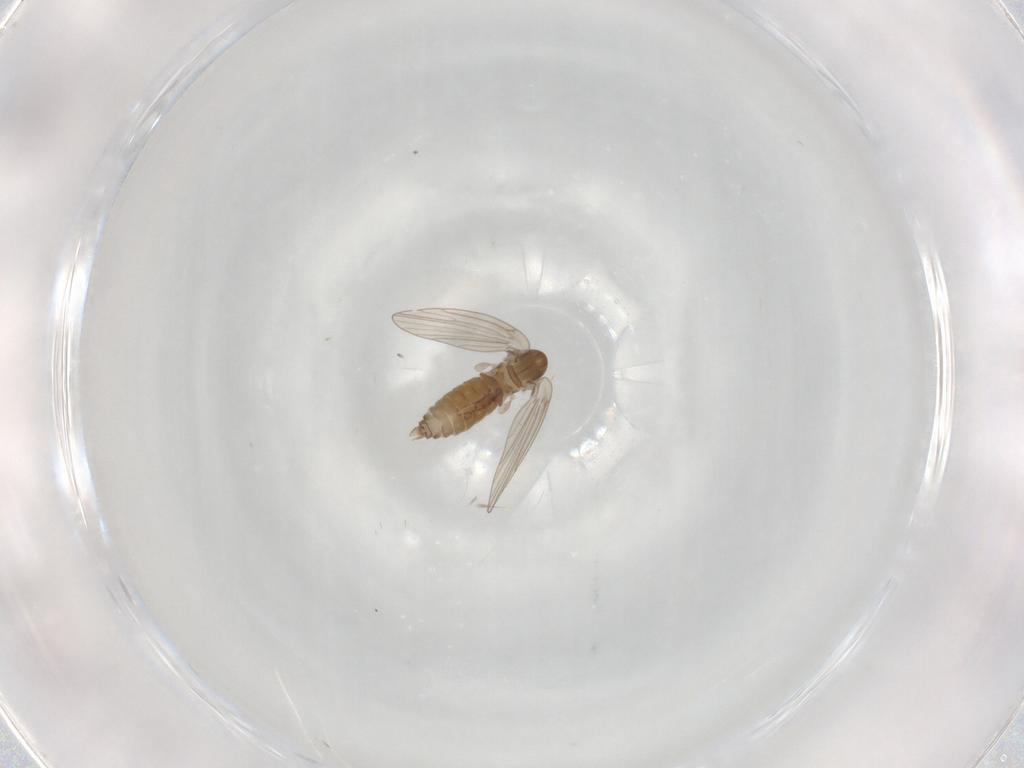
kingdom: Animalia
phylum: Arthropoda
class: Insecta
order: Diptera
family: Psychodidae
